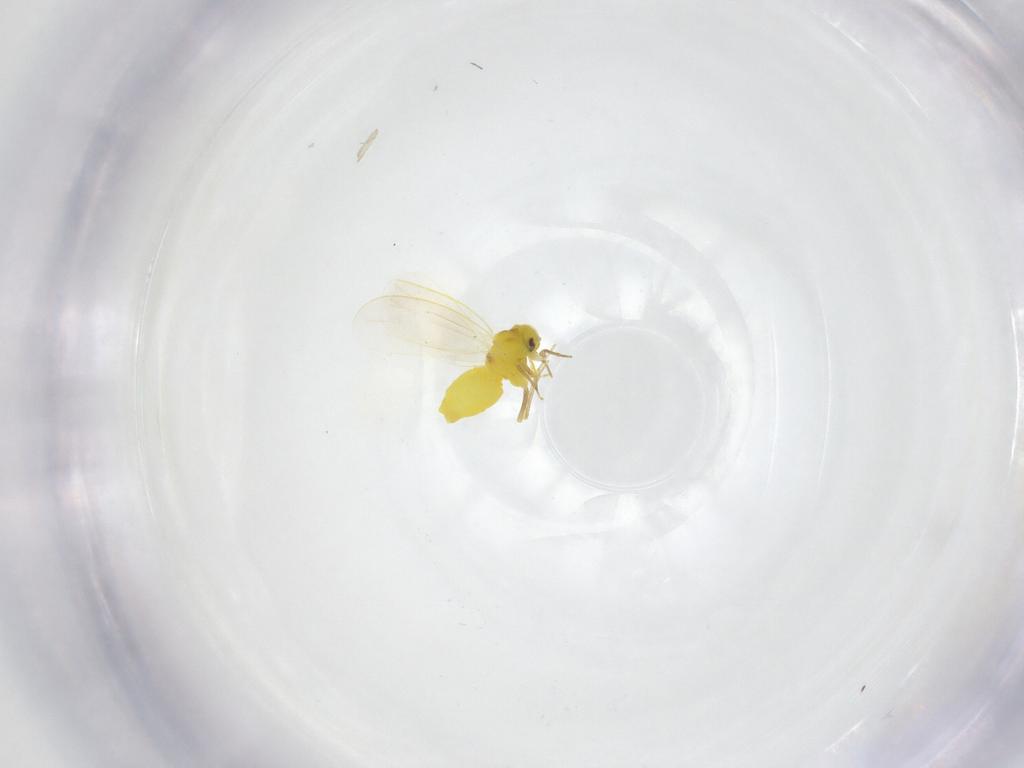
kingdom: Animalia
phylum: Arthropoda
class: Insecta
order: Hemiptera
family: Aleyrodidae
